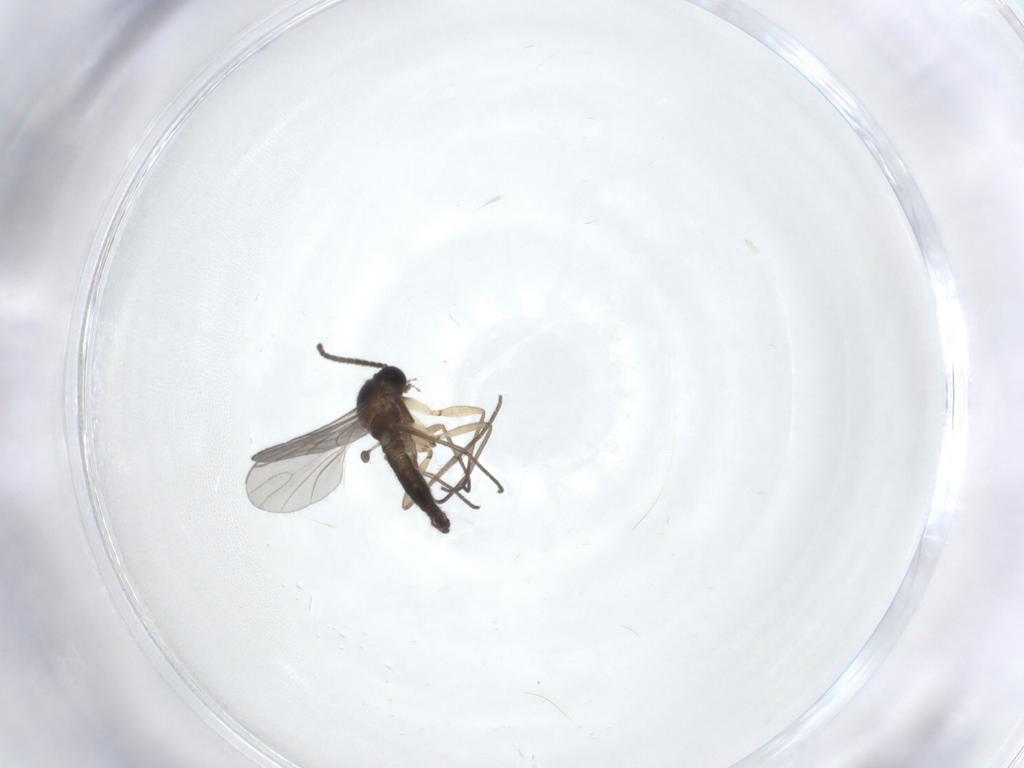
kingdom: Animalia
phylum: Arthropoda
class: Insecta
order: Diptera
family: Sciaridae
